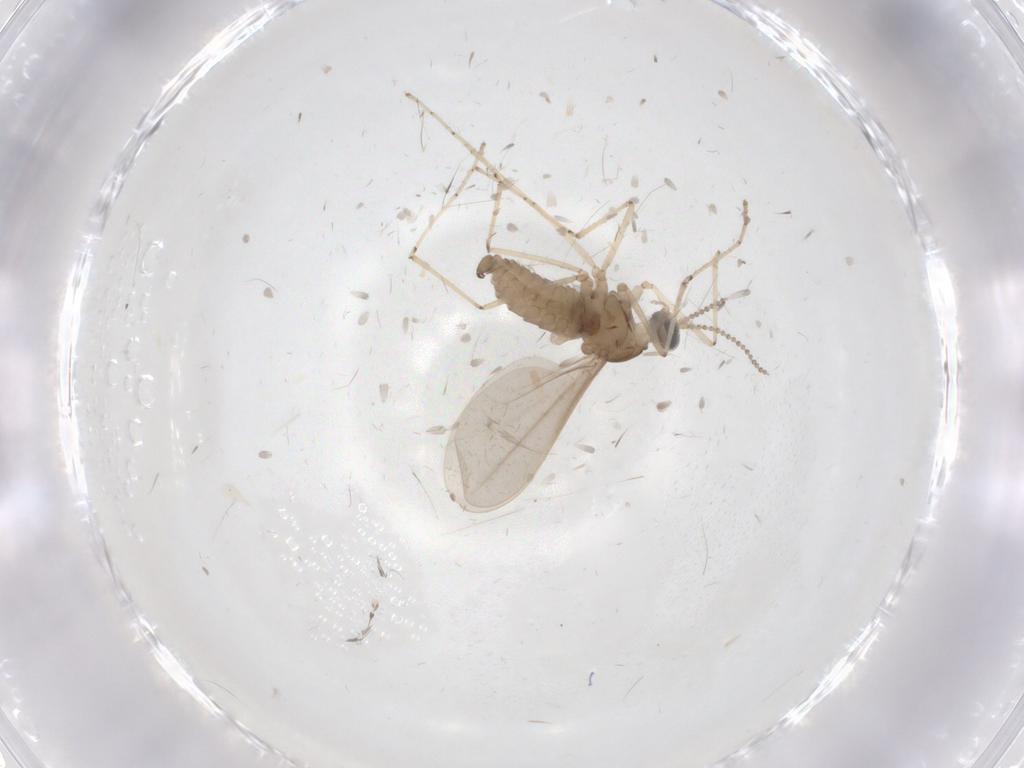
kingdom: Animalia
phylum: Arthropoda
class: Insecta
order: Diptera
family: Cecidomyiidae
